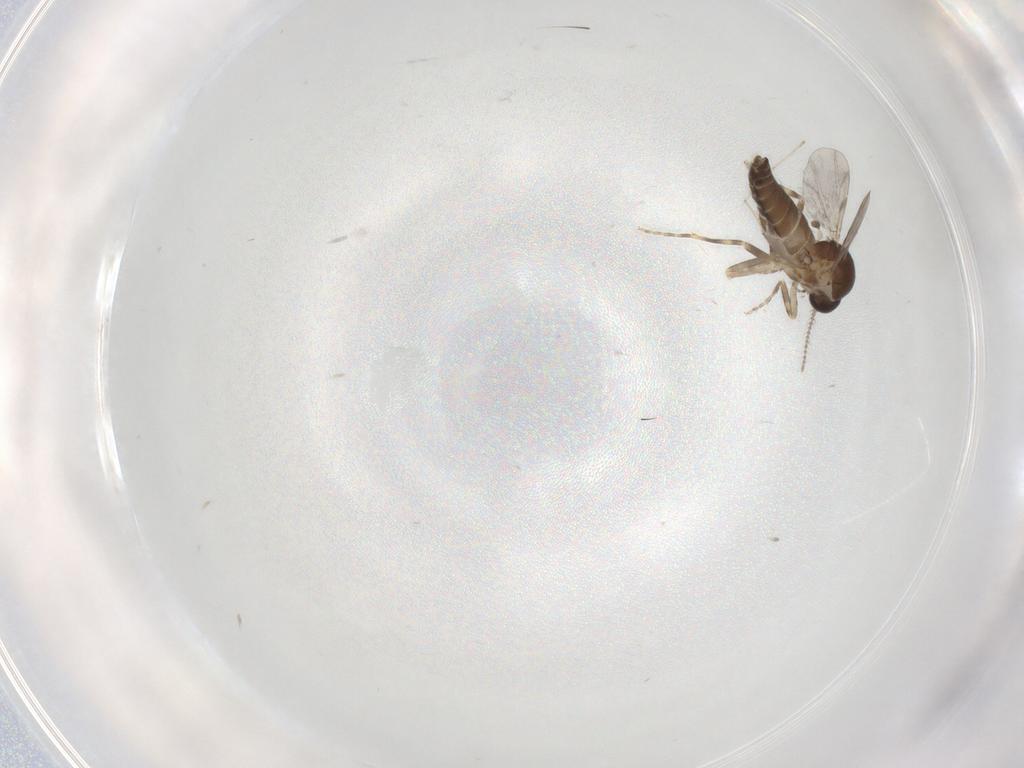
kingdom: Animalia
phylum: Arthropoda
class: Insecta
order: Diptera
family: Ceratopogonidae
